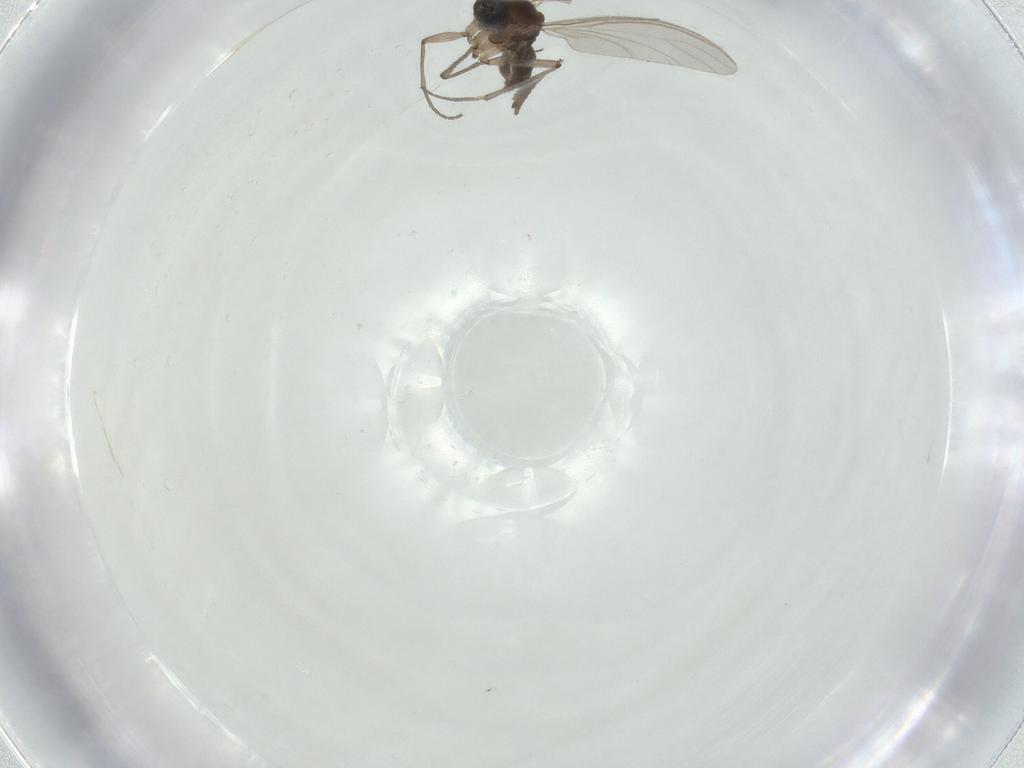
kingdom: Animalia
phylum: Arthropoda
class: Insecta
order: Diptera
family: Sciaridae
